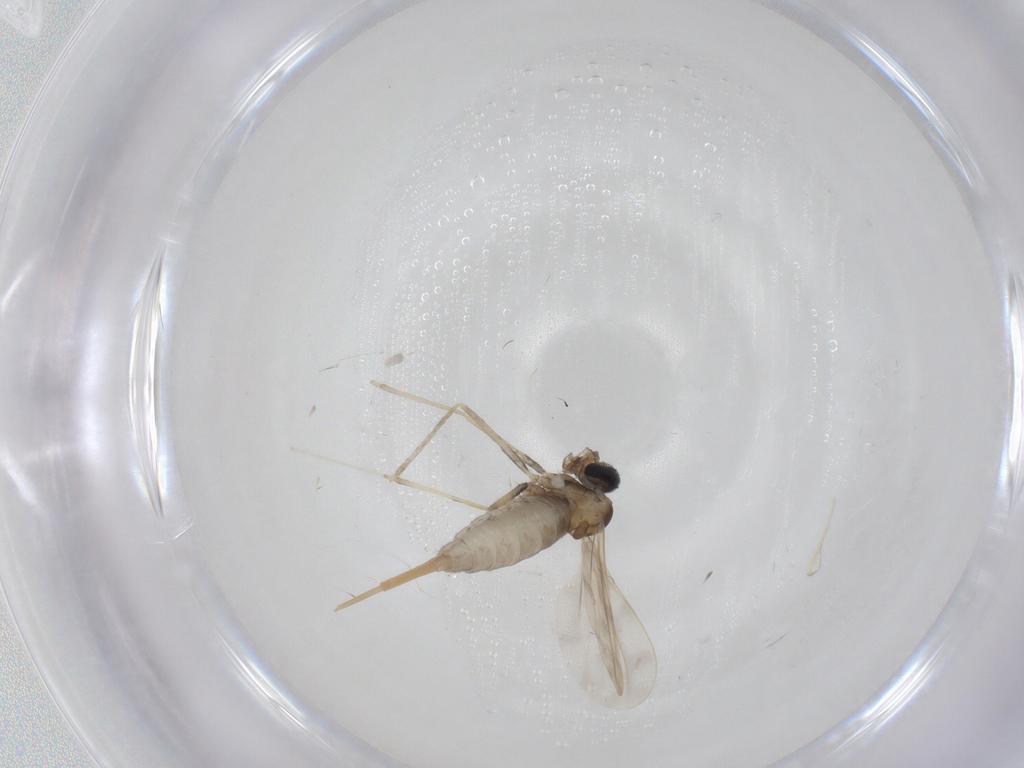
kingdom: Animalia
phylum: Arthropoda
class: Insecta
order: Diptera
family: Cecidomyiidae
